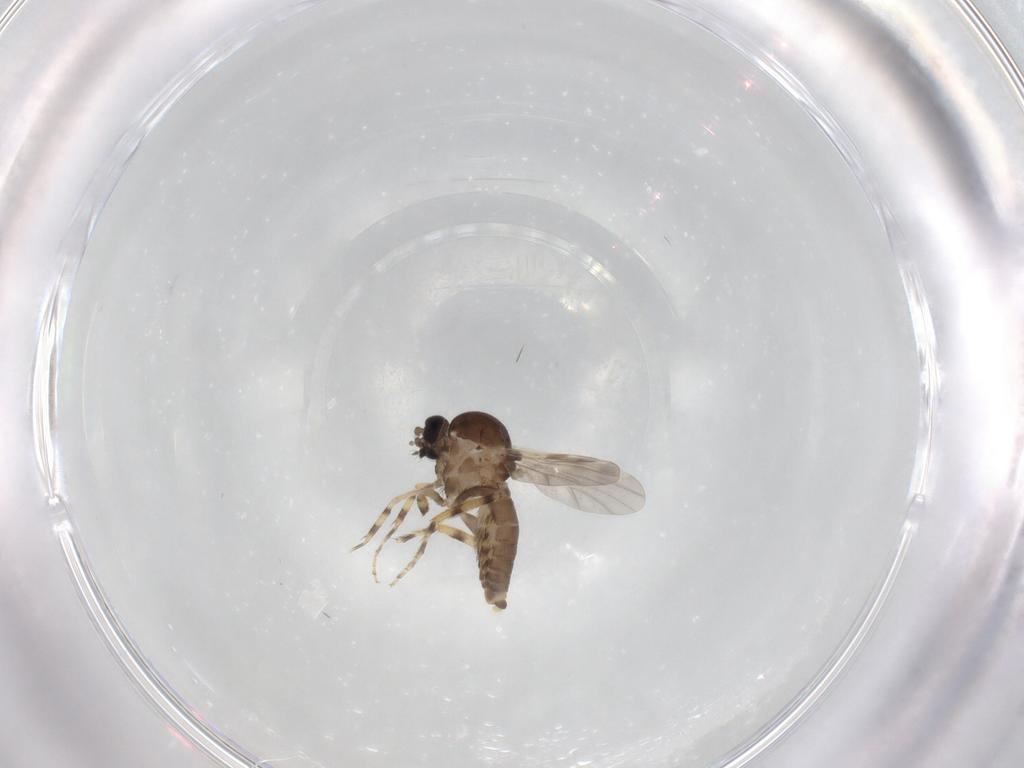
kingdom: Animalia
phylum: Arthropoda
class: Insecta
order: Diptera
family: Ceratopogonidae
